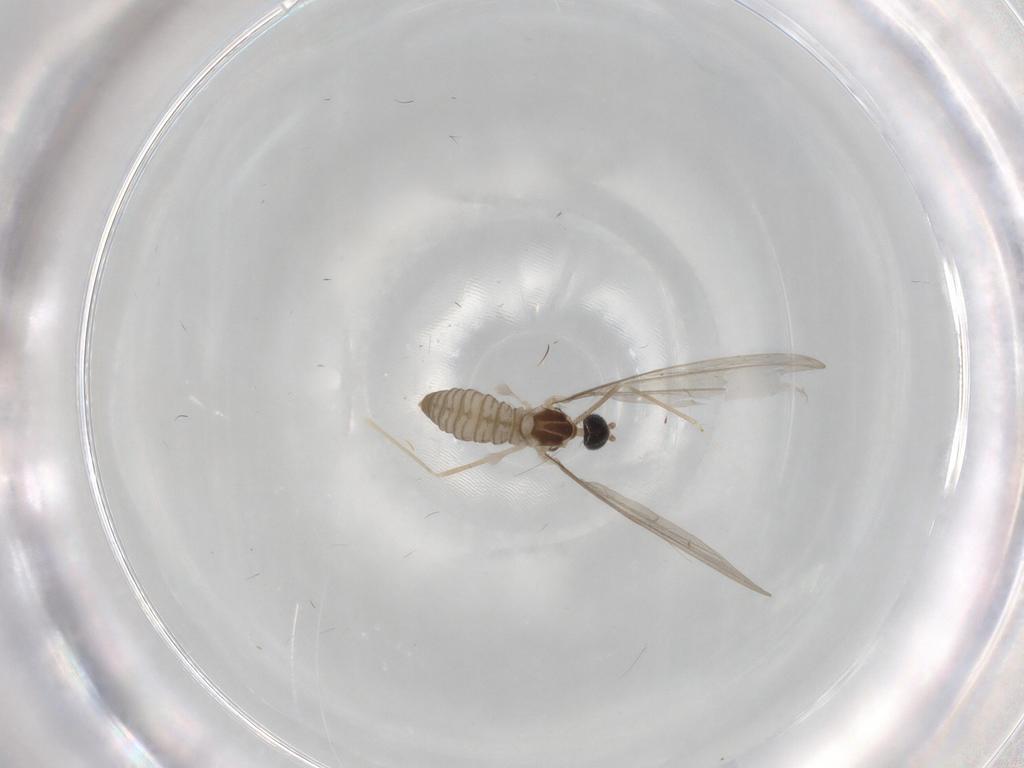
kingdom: Animalia
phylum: Arthropoda
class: Insecta
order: Diptera
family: Cecidomyiidae
